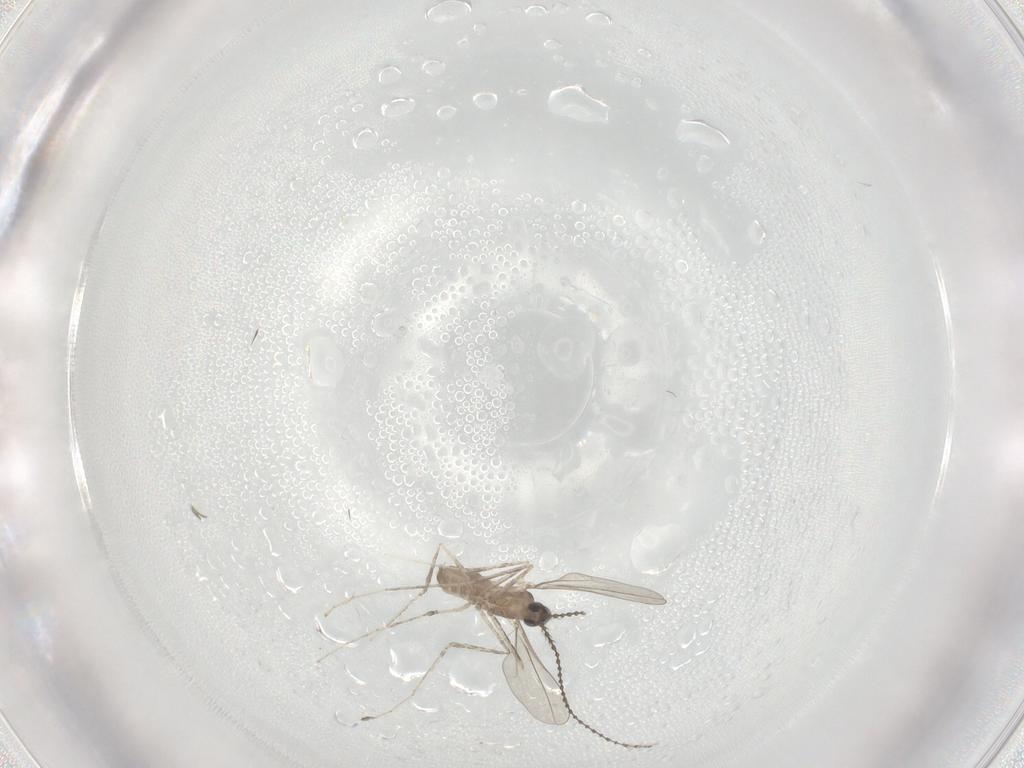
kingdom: Animalia
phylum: Arthropoda
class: Insecta
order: Diptera
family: Cecidomyiidae
